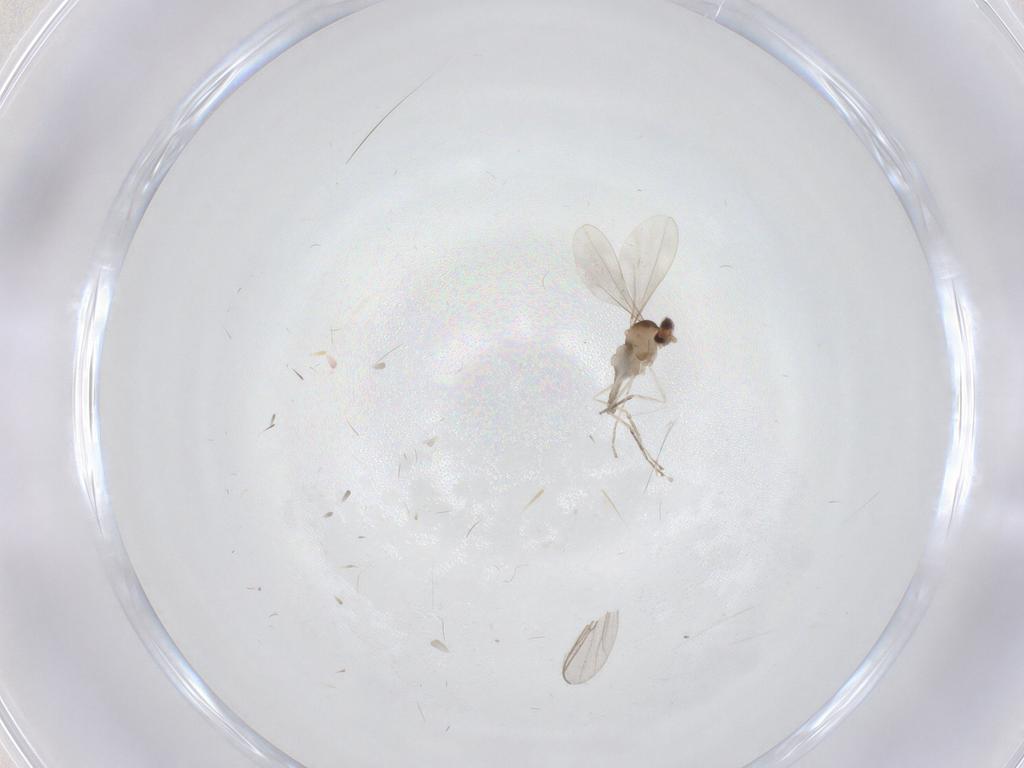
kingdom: Animalia
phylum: Arthropoda
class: Insecta
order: Diptera
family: Cecidomyiidae
